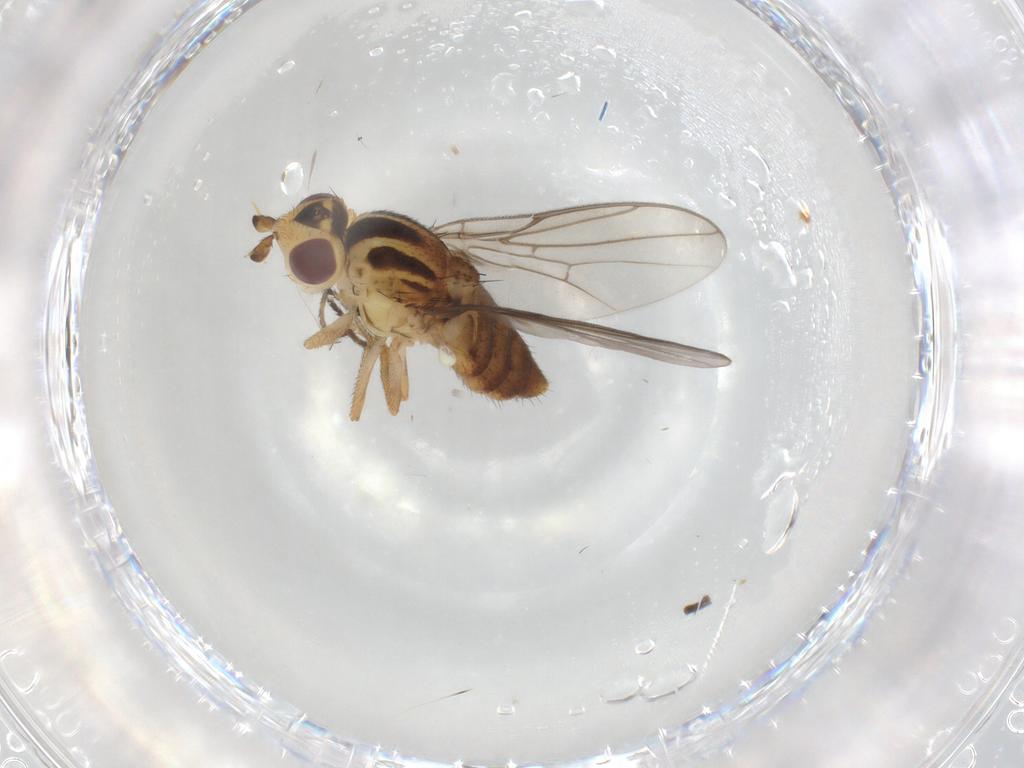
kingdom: Animalia
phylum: Arthropoda
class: Insecta
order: Diptera
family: Chloropidae
